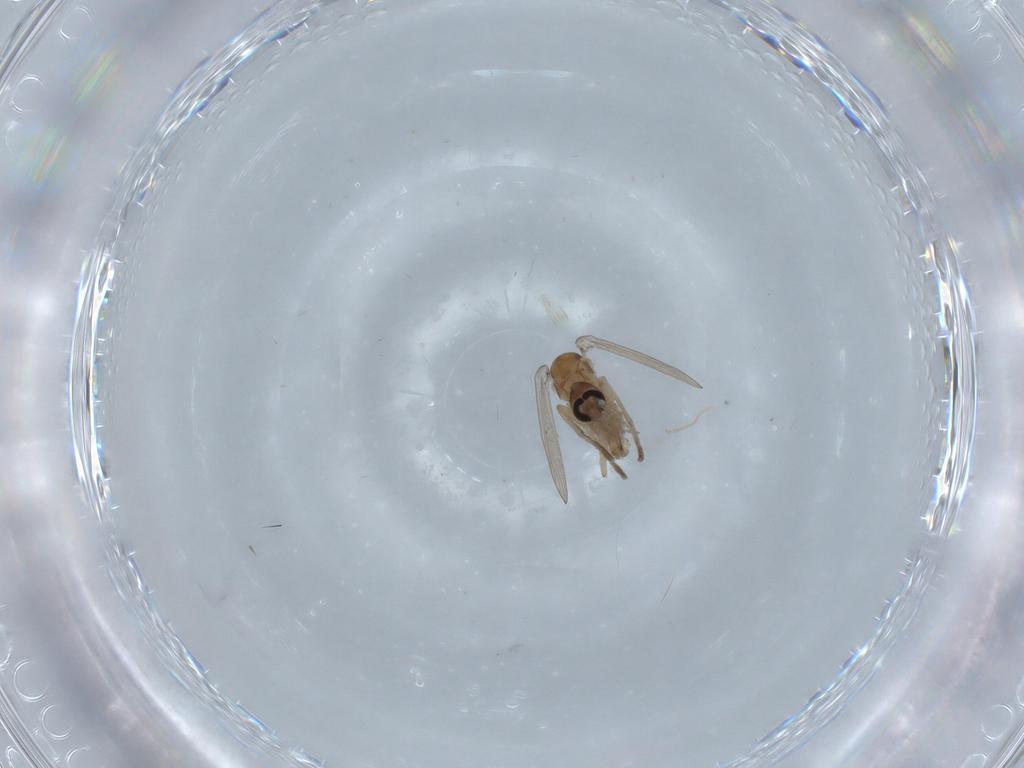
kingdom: Animalia
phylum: Arthropoda
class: Insecta
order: Diptera
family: Chironomidae
